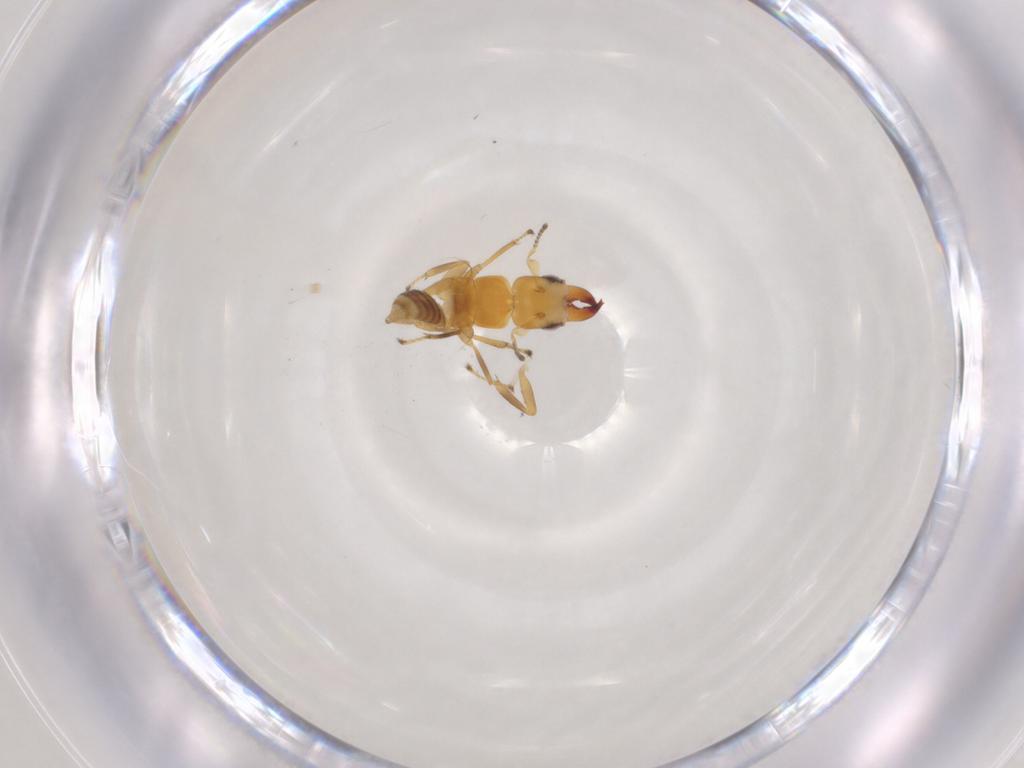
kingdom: Animalia
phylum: Arthropoda
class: Insecta
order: Hymenoptera
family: Pteromalidae
